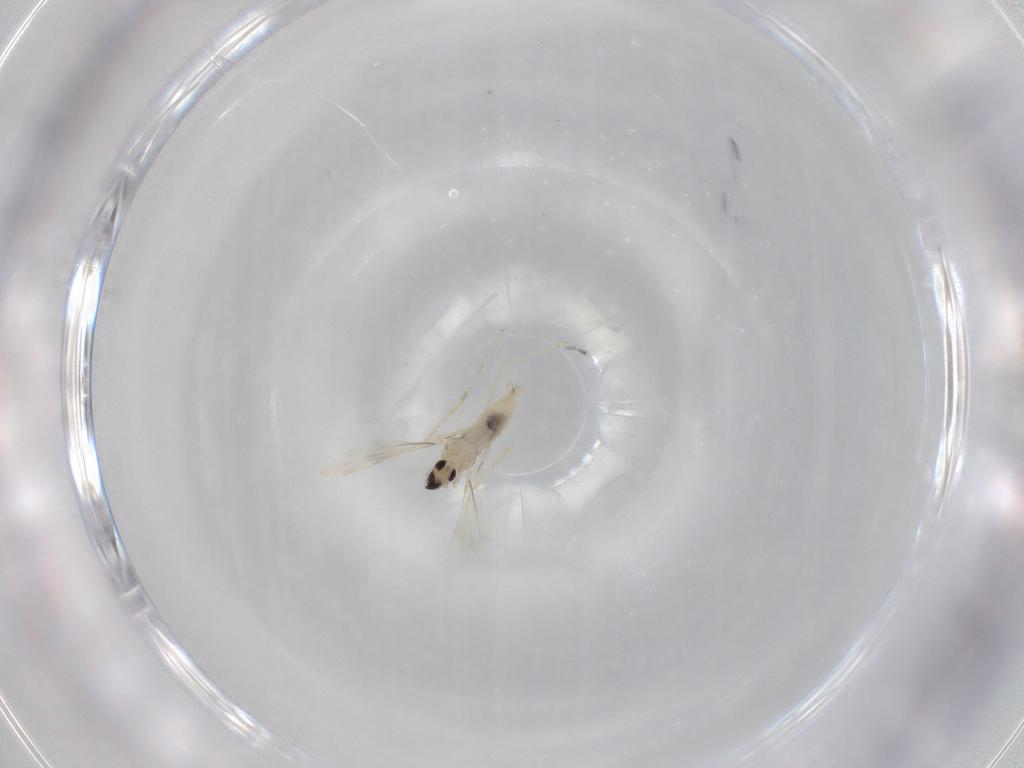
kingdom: Animalia
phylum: Arthropoda
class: Insecta
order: Diptera
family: Cecidomyiidae
